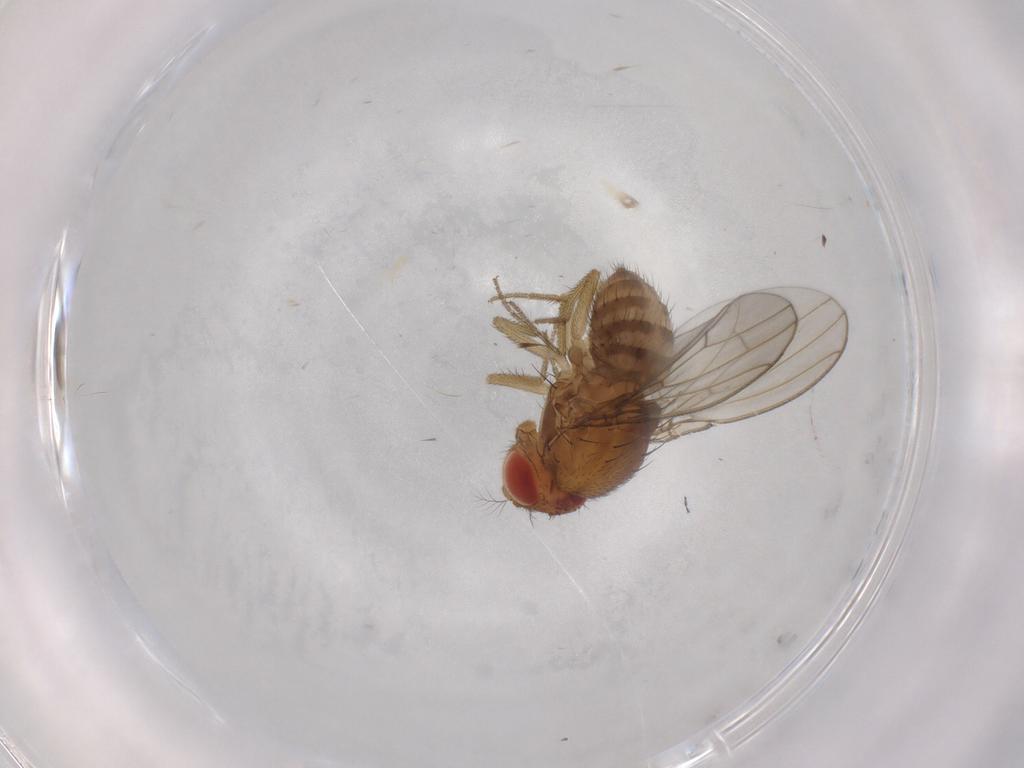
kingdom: Animalia
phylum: Arthropoda
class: Insecta
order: Diptera
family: Drosophilidae
